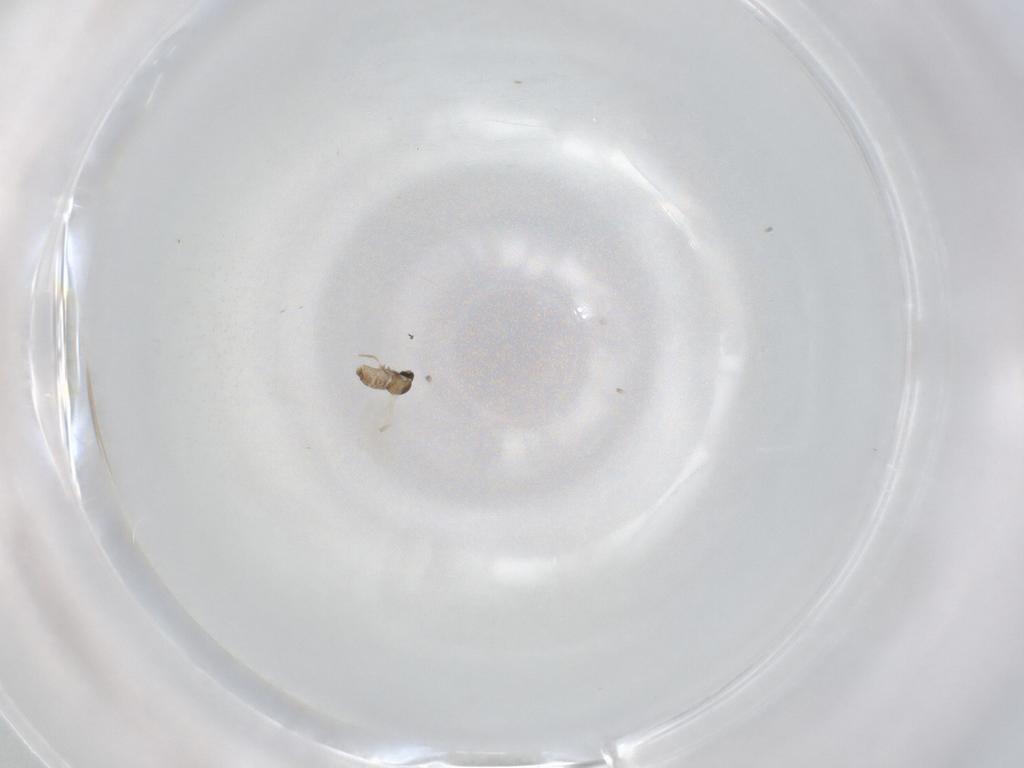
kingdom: Animalia
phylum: Arthropoda
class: Insecta
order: Diptera
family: Cecidomyiidae
